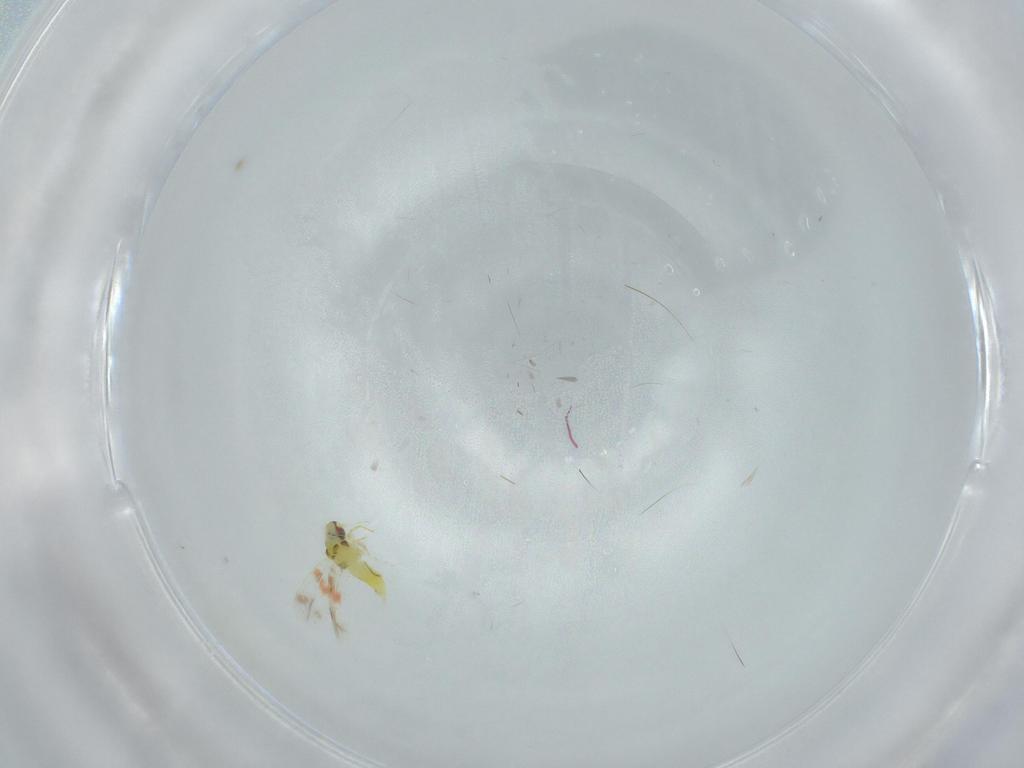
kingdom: Animalia
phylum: Arthropoda
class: Insecta
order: Hemiptera
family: Aleyrodidae
